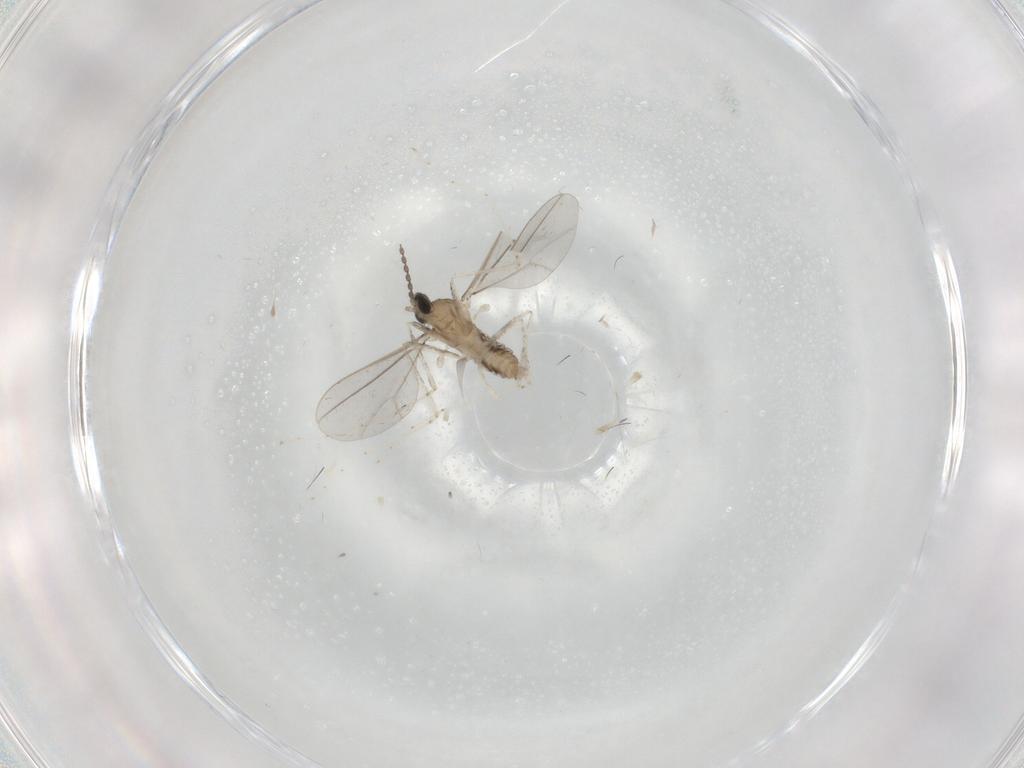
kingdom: Animalia
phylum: Arthropoda
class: Insecta
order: Diptera
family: Cecidomyiidae
